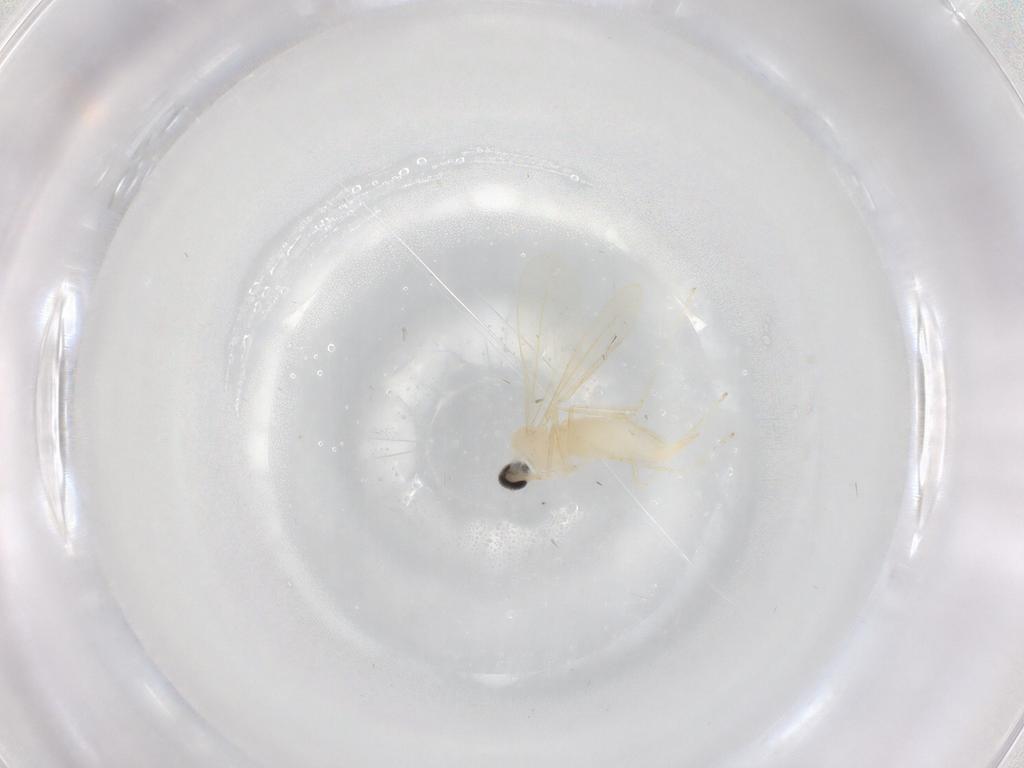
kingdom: Animalia
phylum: Arthropoda
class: Insecta
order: Diptera
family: Cecidomyiidae
